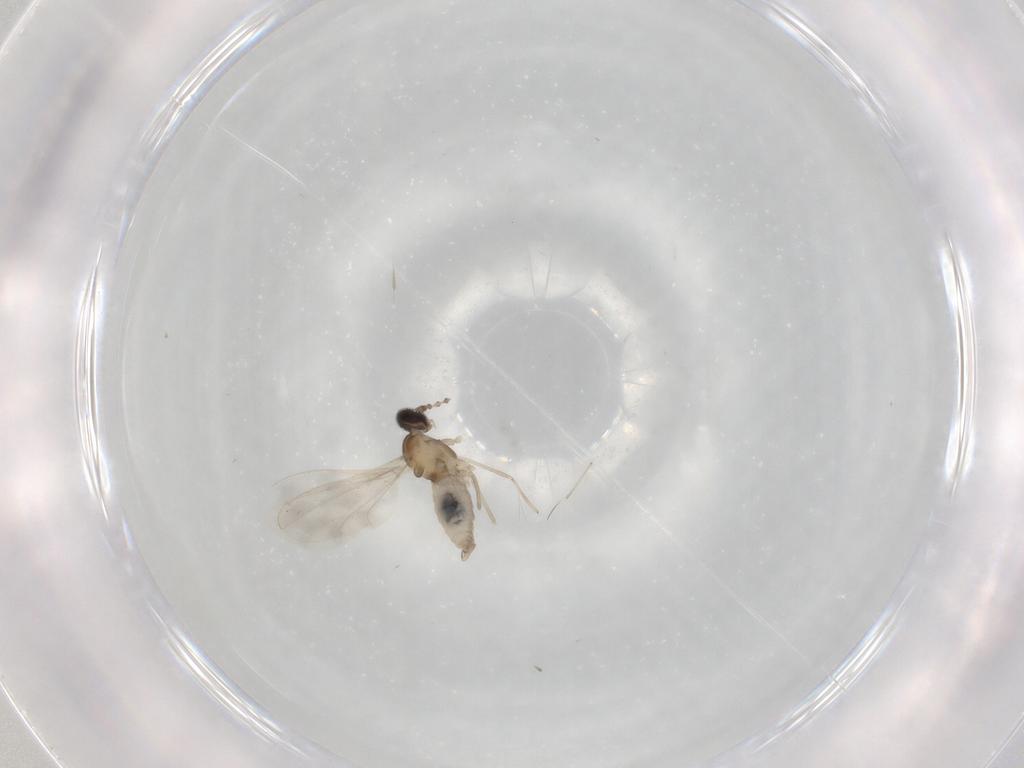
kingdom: Animalia
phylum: Arthropoda
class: Insecta
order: Diptera
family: Cecidomyiidae
